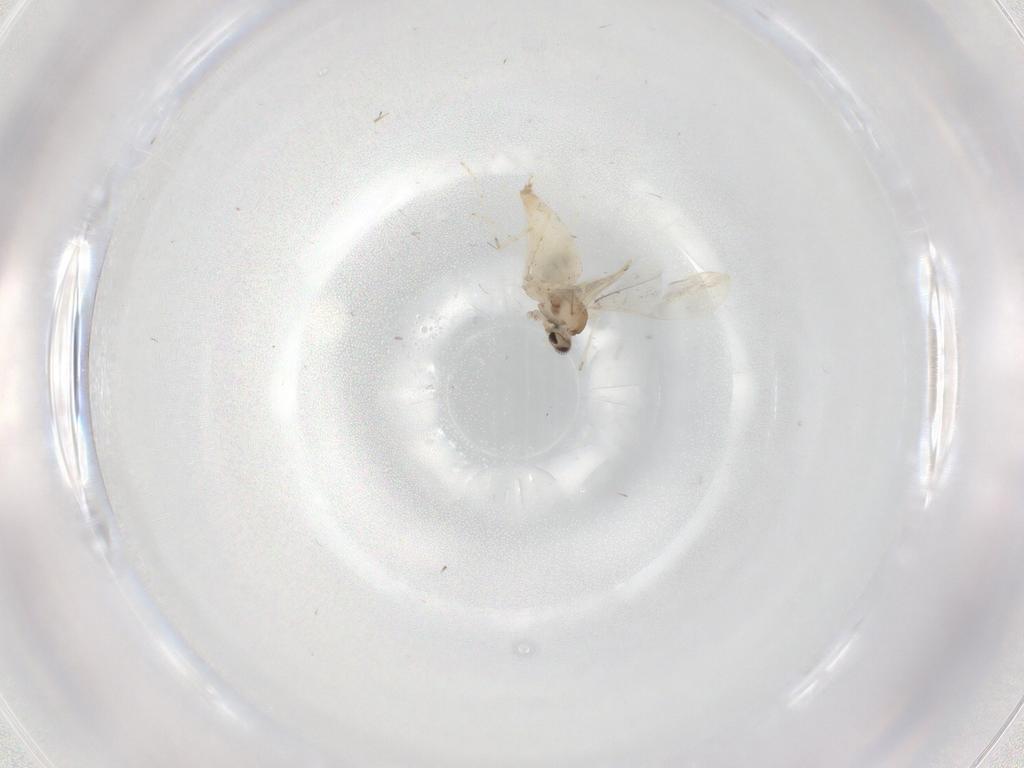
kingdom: Animalia
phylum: Arthropoda
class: Insecta
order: Diptera
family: Cecidomyiidae
